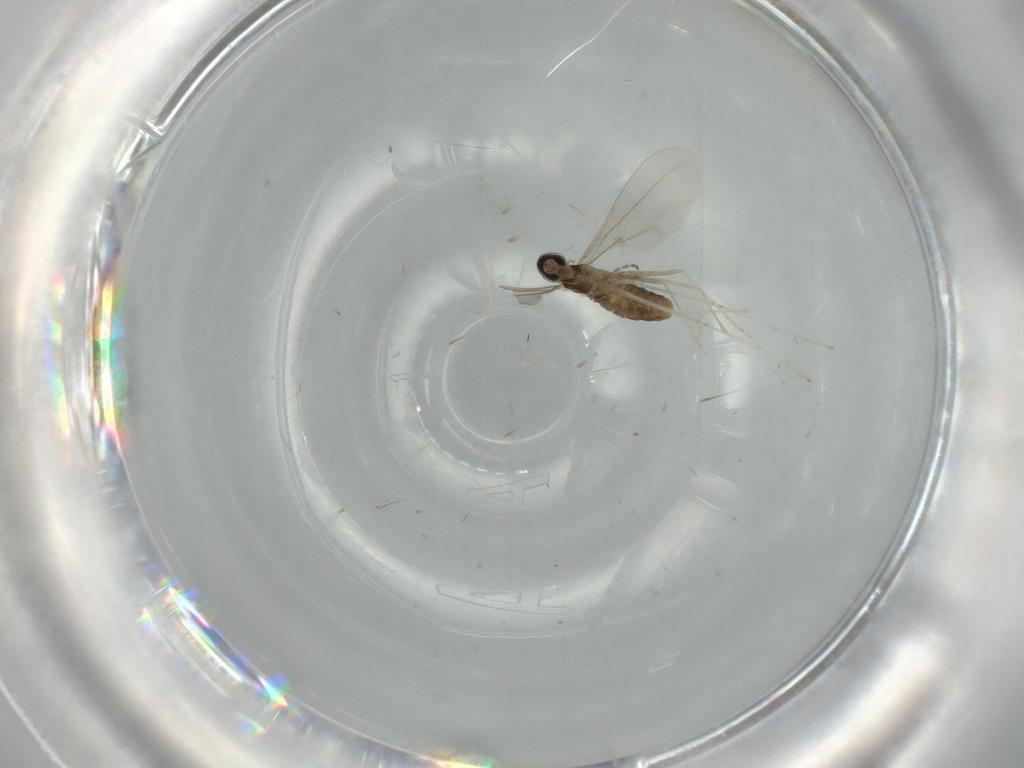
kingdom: Animalia
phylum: Arthropoda
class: Insecta
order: Diptera
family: Cecidomyiidae
